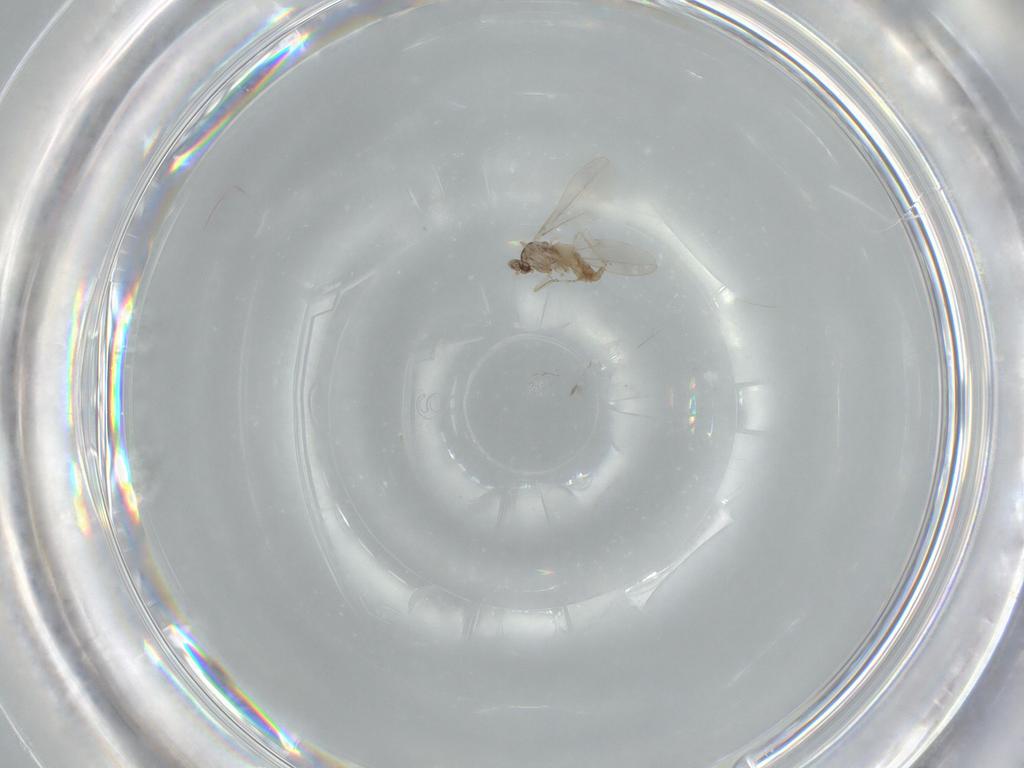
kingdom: Animalia
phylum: Arthropoda
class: Insecta
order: Diptera
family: Cecidomyiidae
